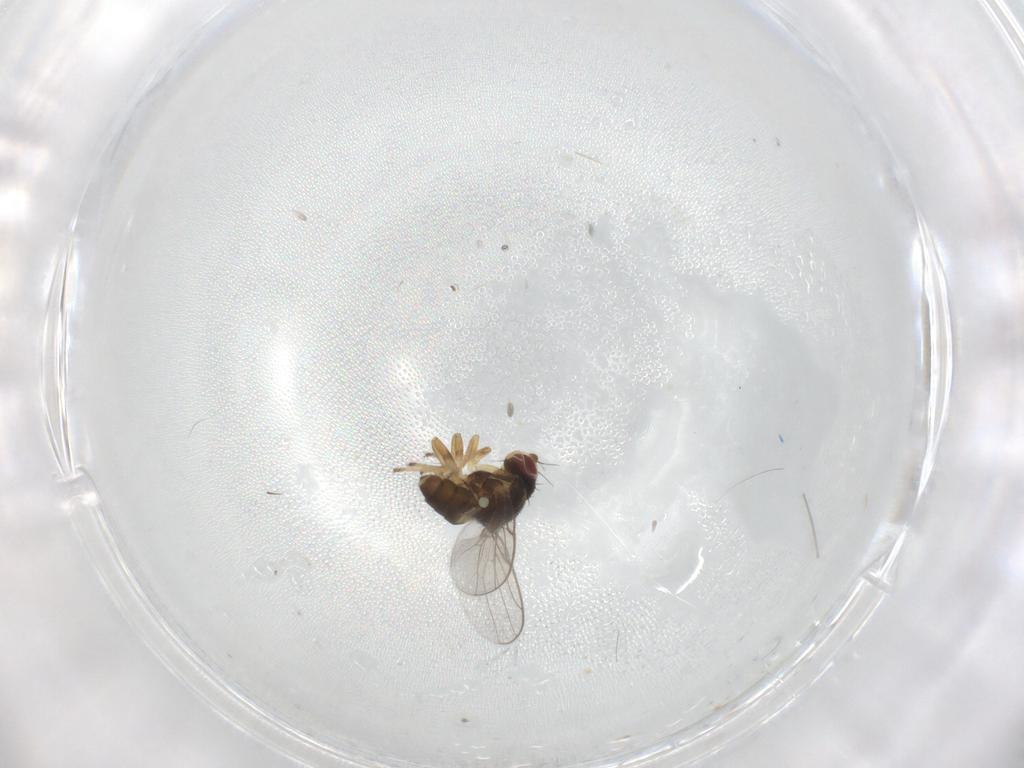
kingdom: Animalia
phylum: Arthropoda
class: Insecta
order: Diptera
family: Chloropidae
